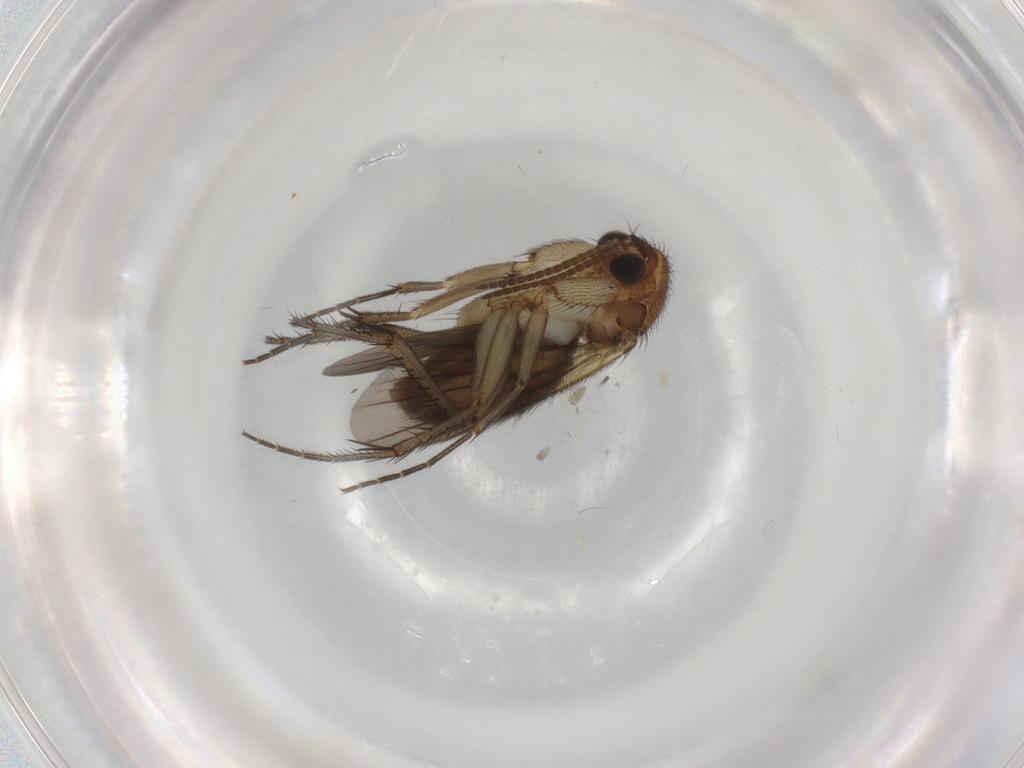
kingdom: Animalia
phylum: Arthropoda
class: Insecta
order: Diptera
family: Mycetophilidae
